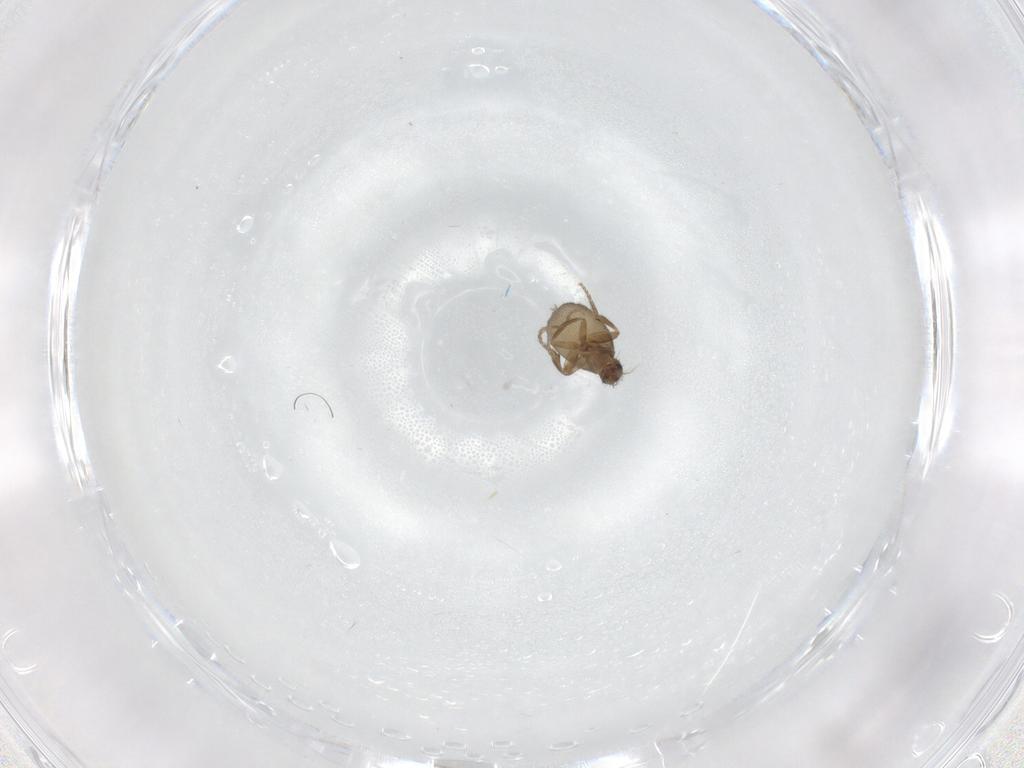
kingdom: Animalia
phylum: Arthropoda
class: Insecta
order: Diptera
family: Cecidomyiidae
